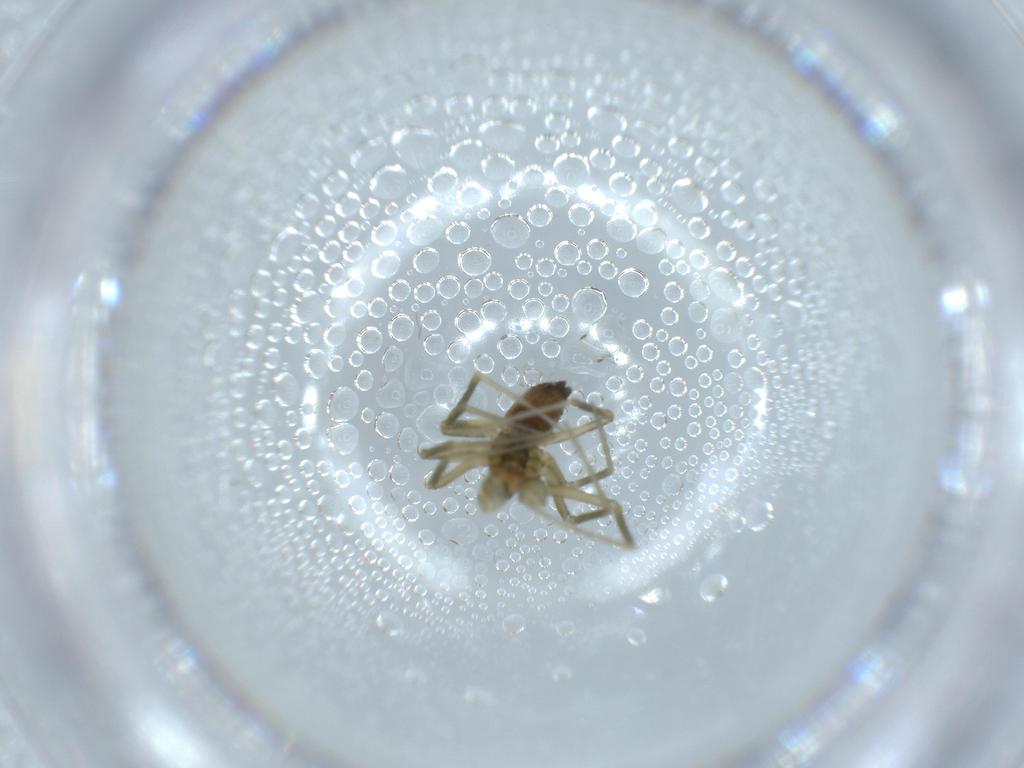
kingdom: Animalia
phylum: Arthropoda
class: Arachnida
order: Araneae
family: Linyphiidae
